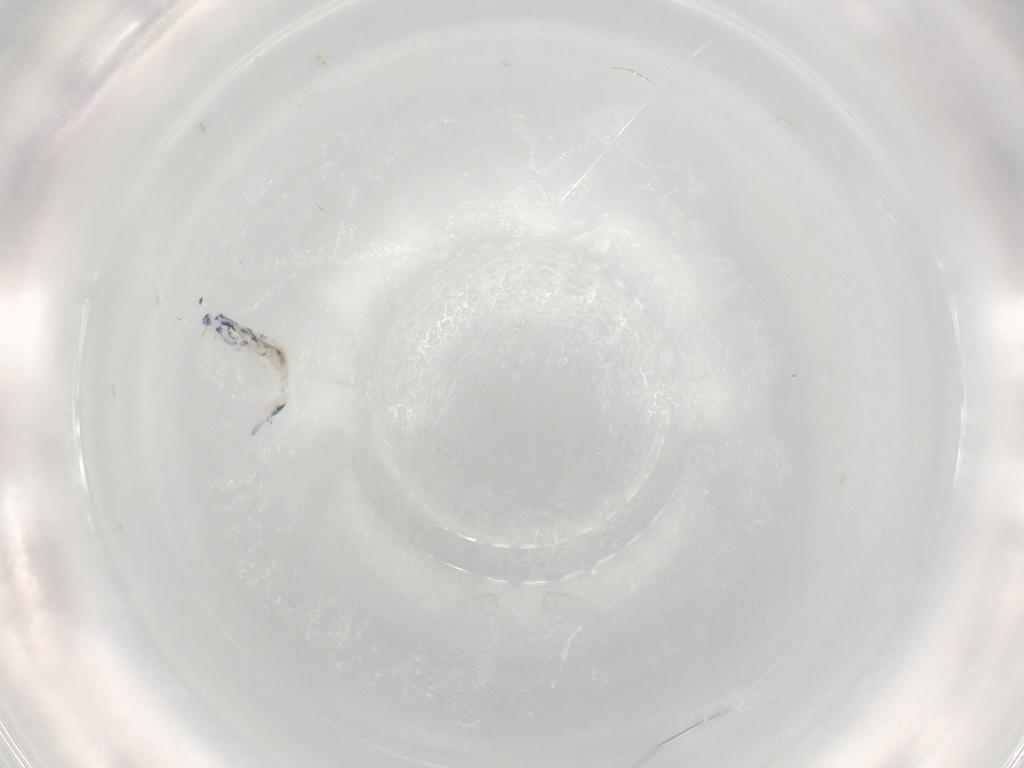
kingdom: Animalia
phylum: Arthropoda
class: Collembola
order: Entomobryomorpha
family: Entomobryidae
